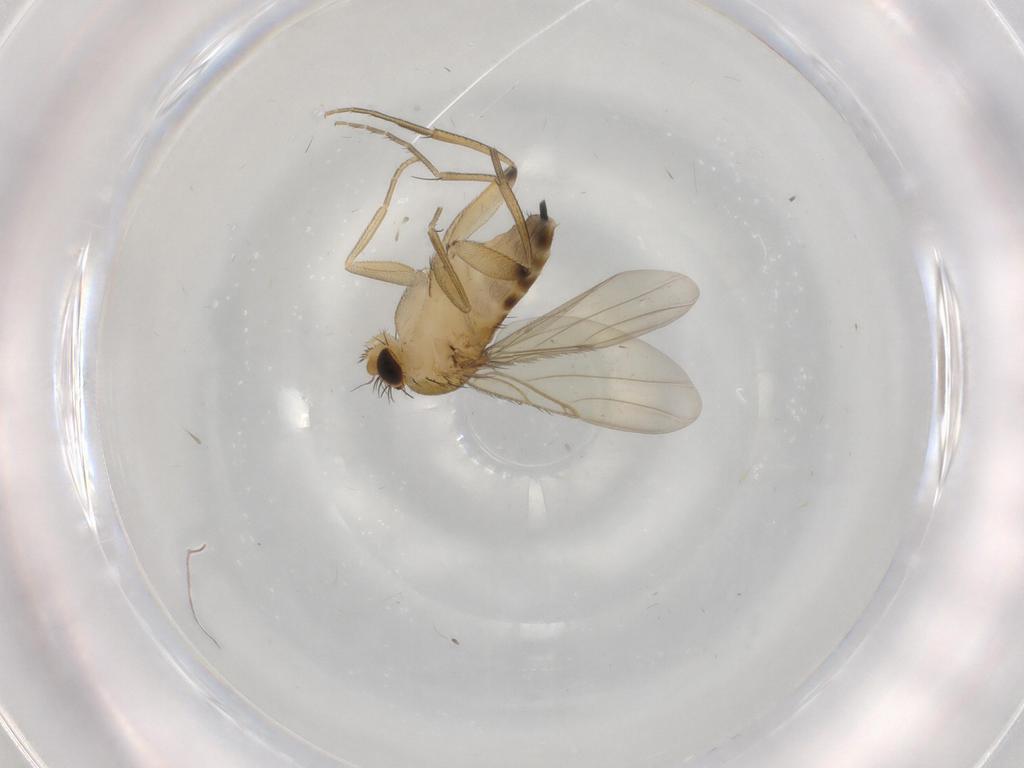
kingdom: Animalia
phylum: Arthropoda
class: Insecta
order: Diptera
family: Phoridae
